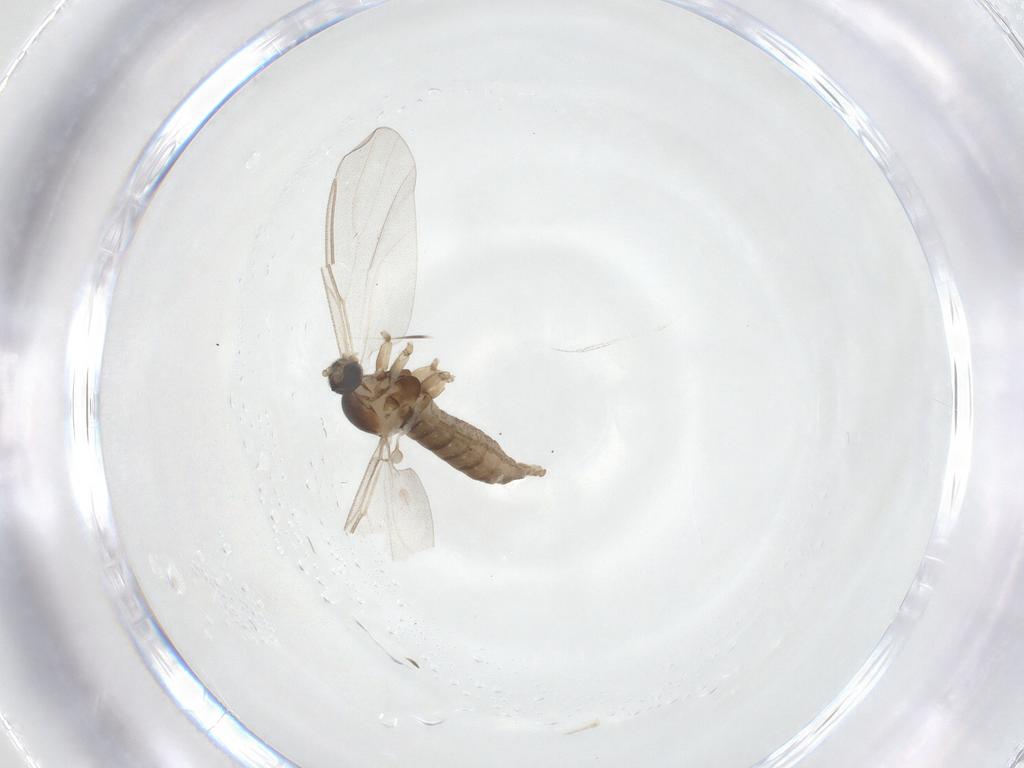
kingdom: Animalia
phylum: Arthropoda
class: Insecta
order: Diptera
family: Cecidomyiidae
